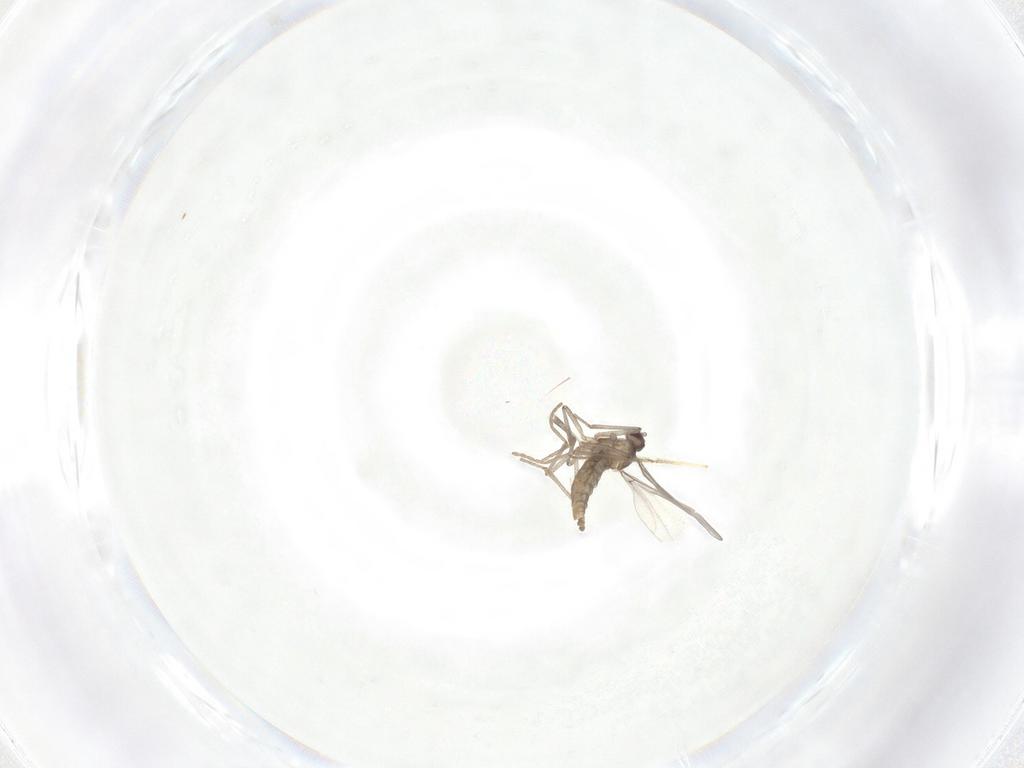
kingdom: Animalia
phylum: Arthropoda
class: Insecta
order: Diptera
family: Cecidomyiidae
